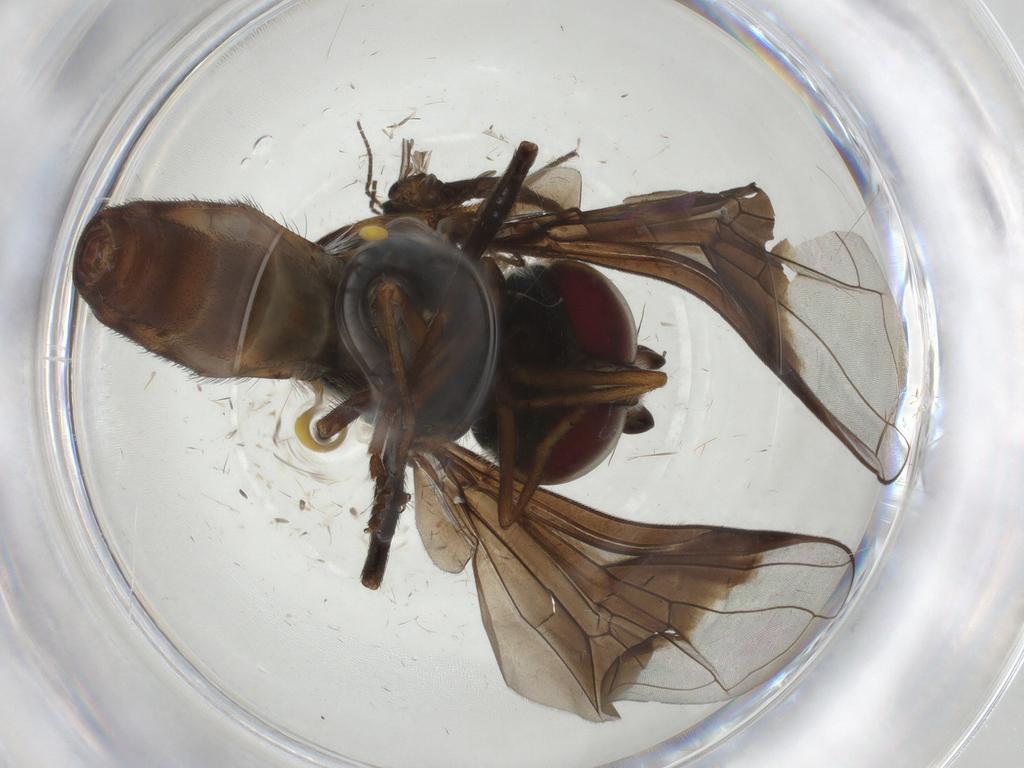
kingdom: Animalia
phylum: Arthropoda
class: Insecta
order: Diptera
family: Syrphidae
